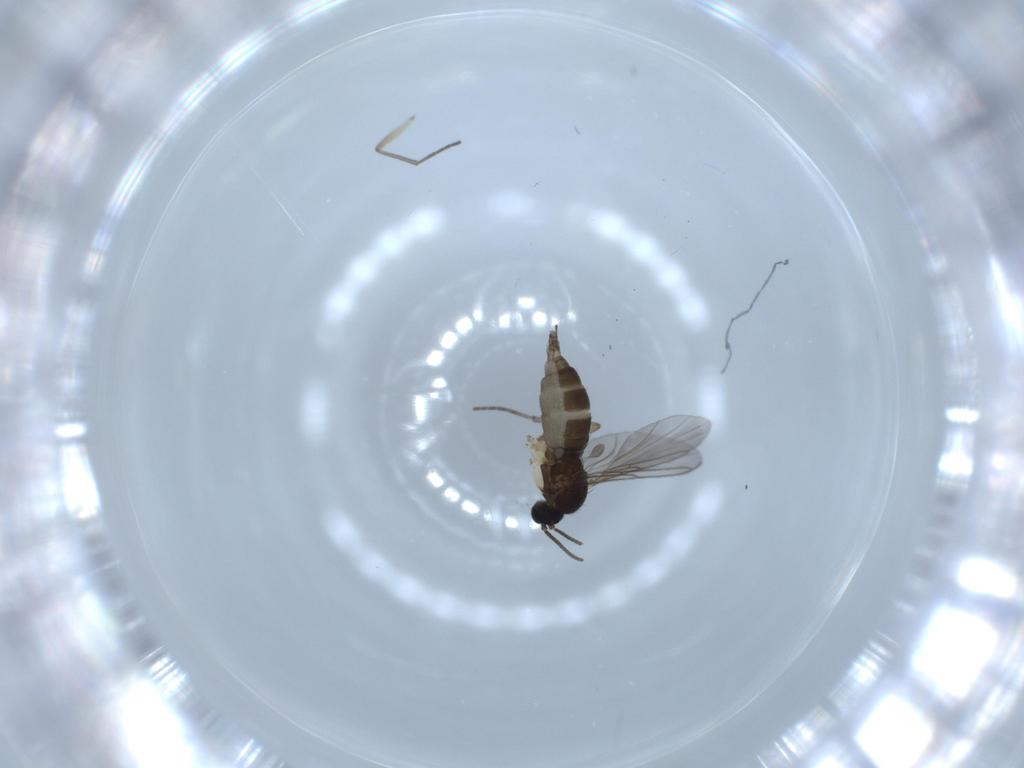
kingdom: Animalia
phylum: Arthropoda
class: Insecta
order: Diptera
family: Sciaridae
